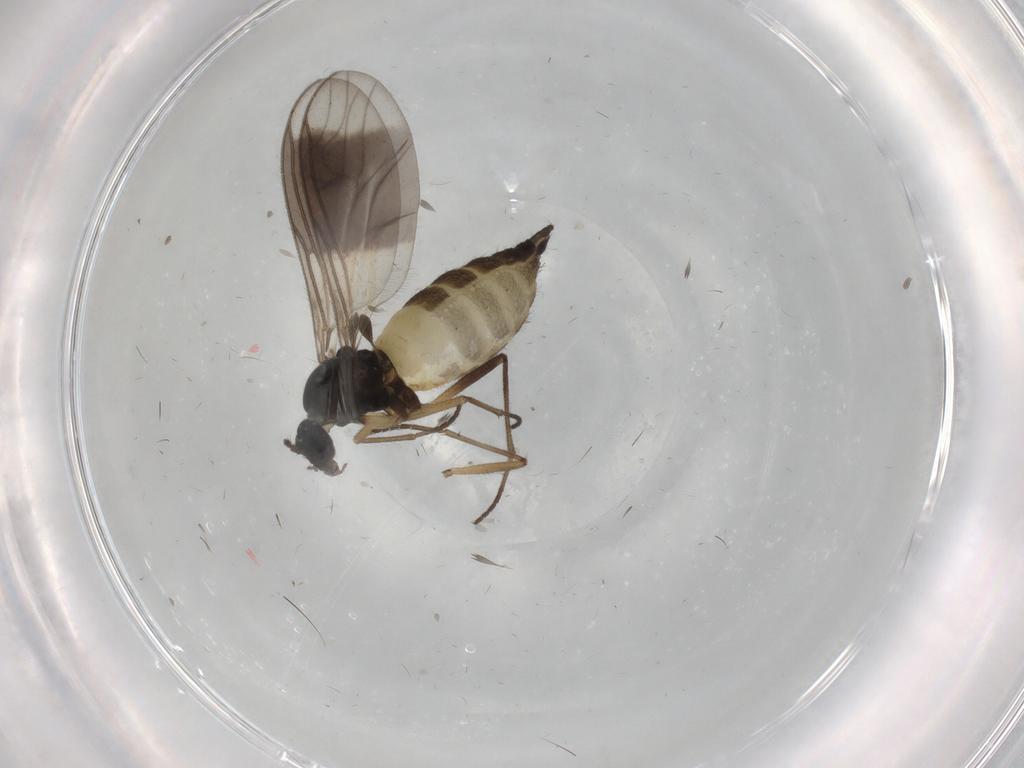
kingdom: Animalia
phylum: Arthropoda
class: Insecta
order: Diptera
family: Sciaridae
